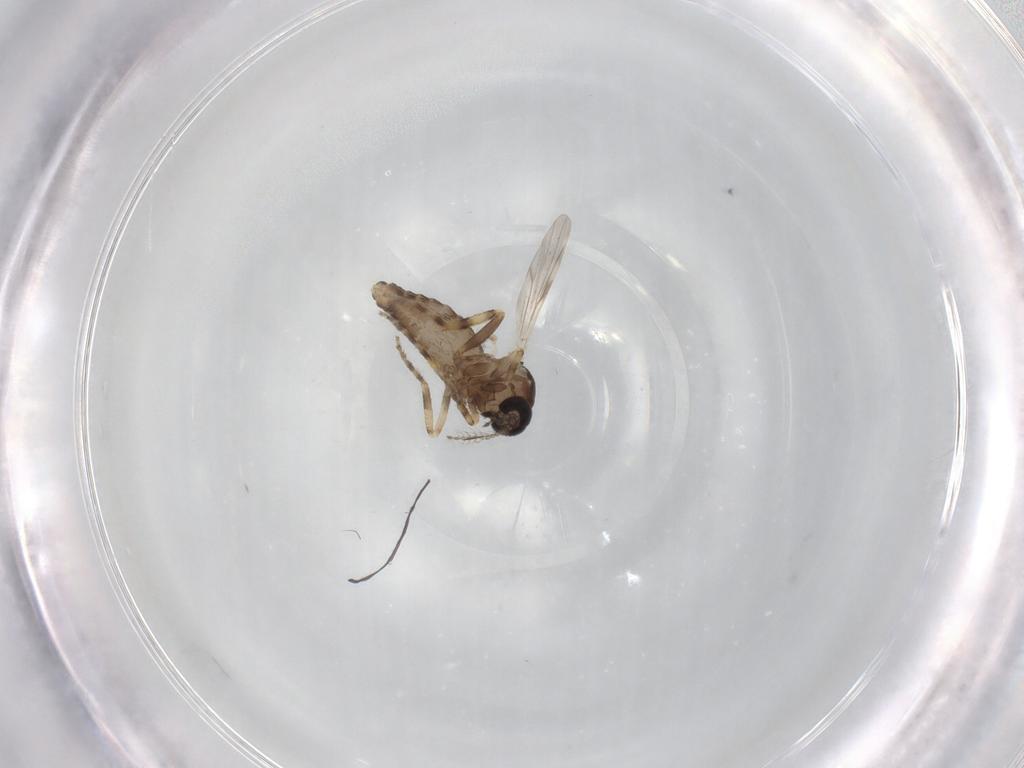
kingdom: Animalia
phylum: Arthropoda
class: Insecta
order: Diptera
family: Ceratopogonidae
